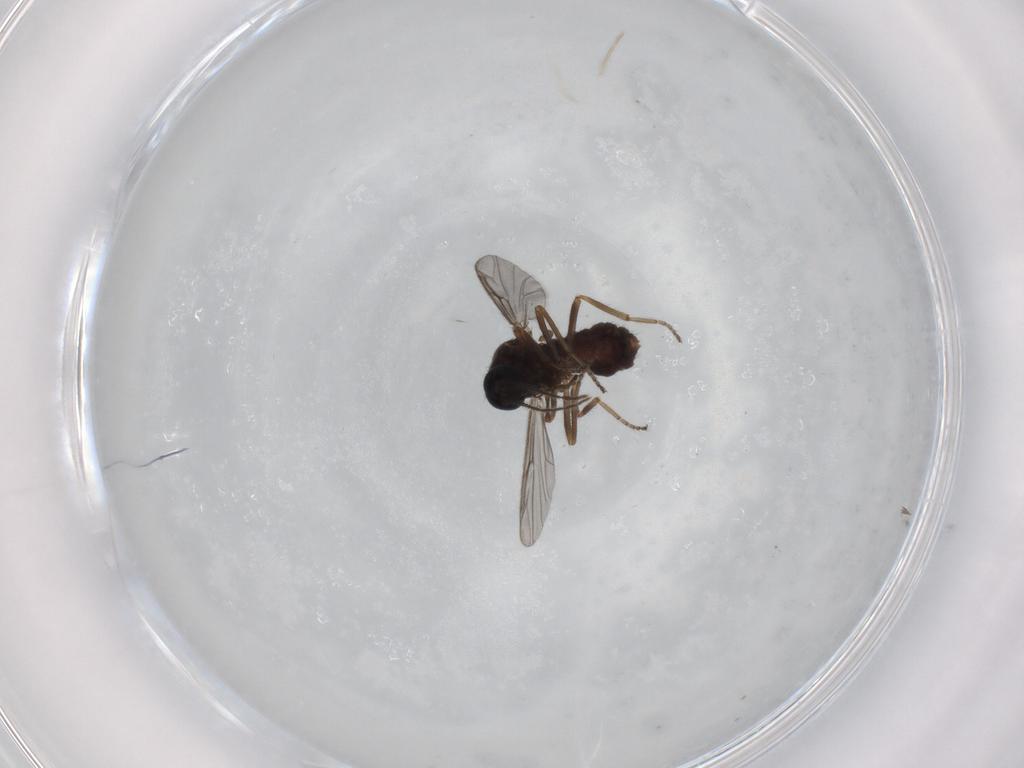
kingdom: Animalia
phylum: Arthropoda
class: Insecta
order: Diptera
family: Ceratopogonidae
